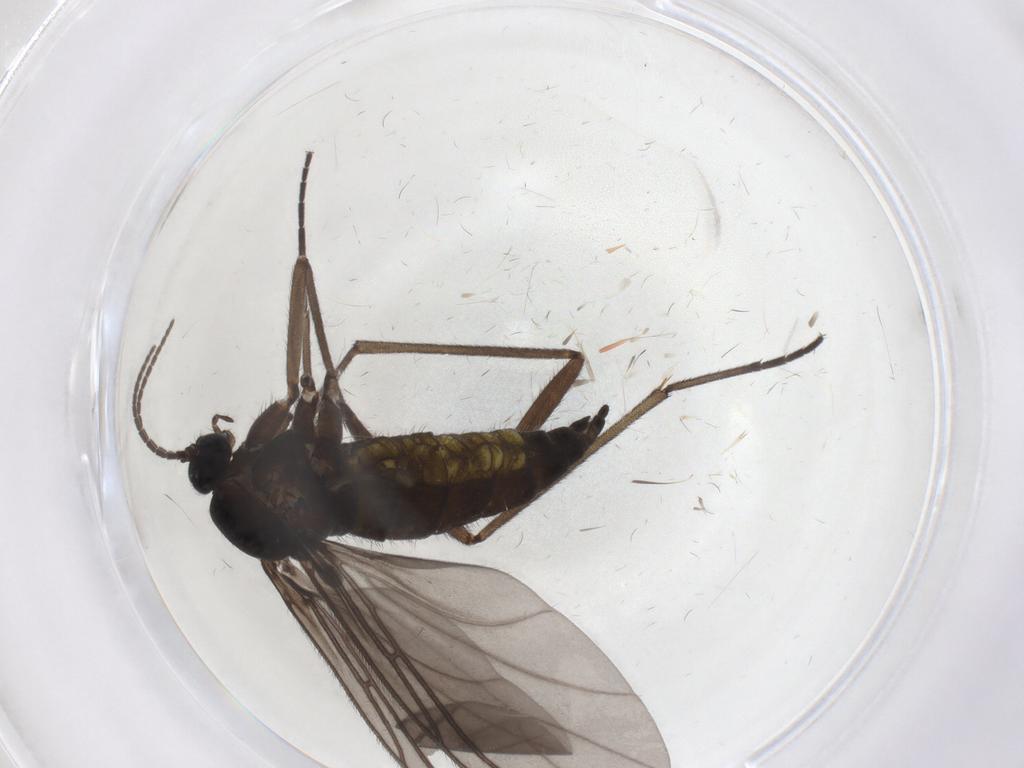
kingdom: Animalia
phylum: Arthropoda
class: Insecta
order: Diptera
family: Sciaridae
